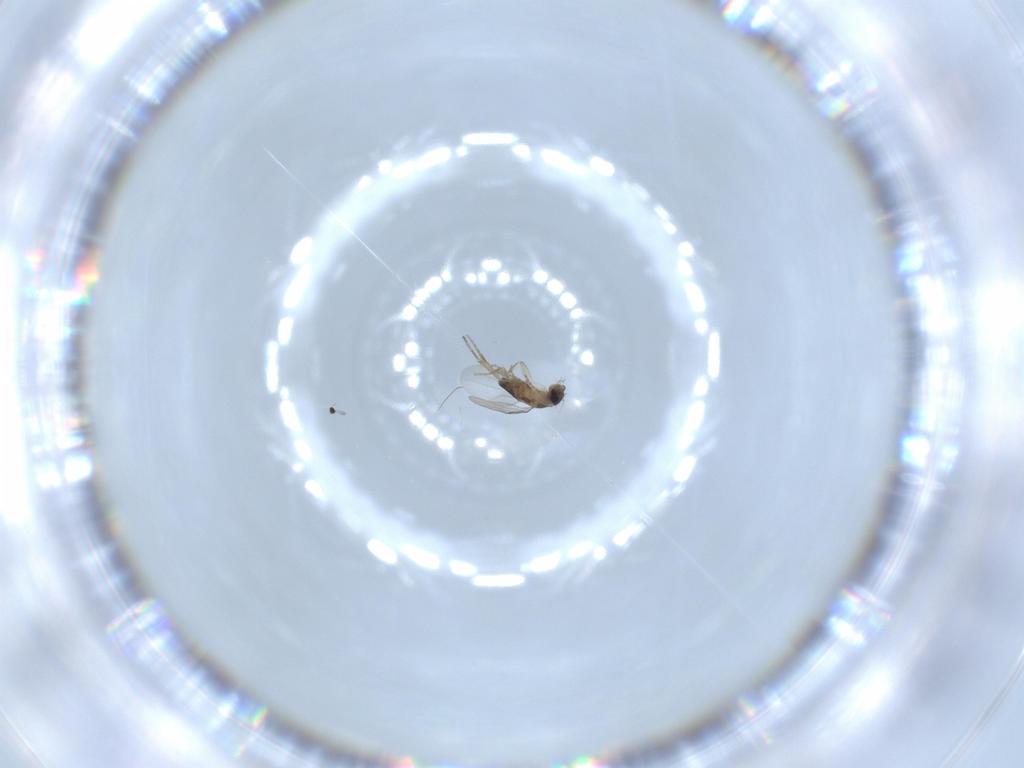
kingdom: Animalia
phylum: Arthropoda
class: Insecta
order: Diptera
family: Phoridae
